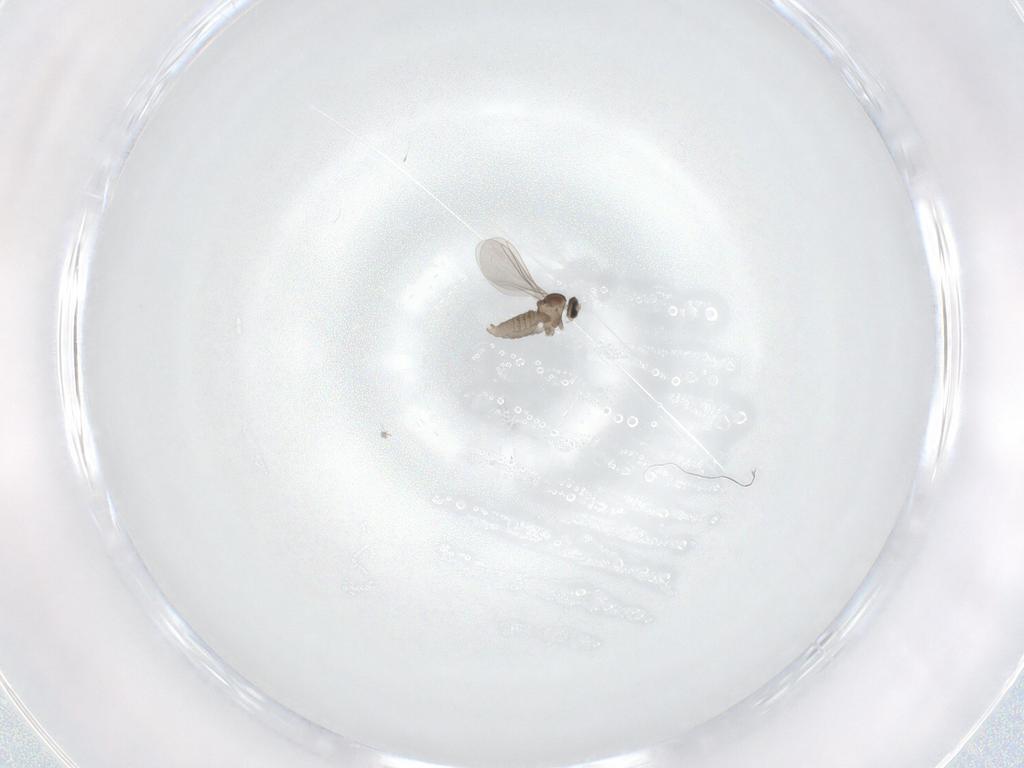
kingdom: Animalia
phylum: Arthropoda
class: Insecta
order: Diptera
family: Cecidomyiidae
